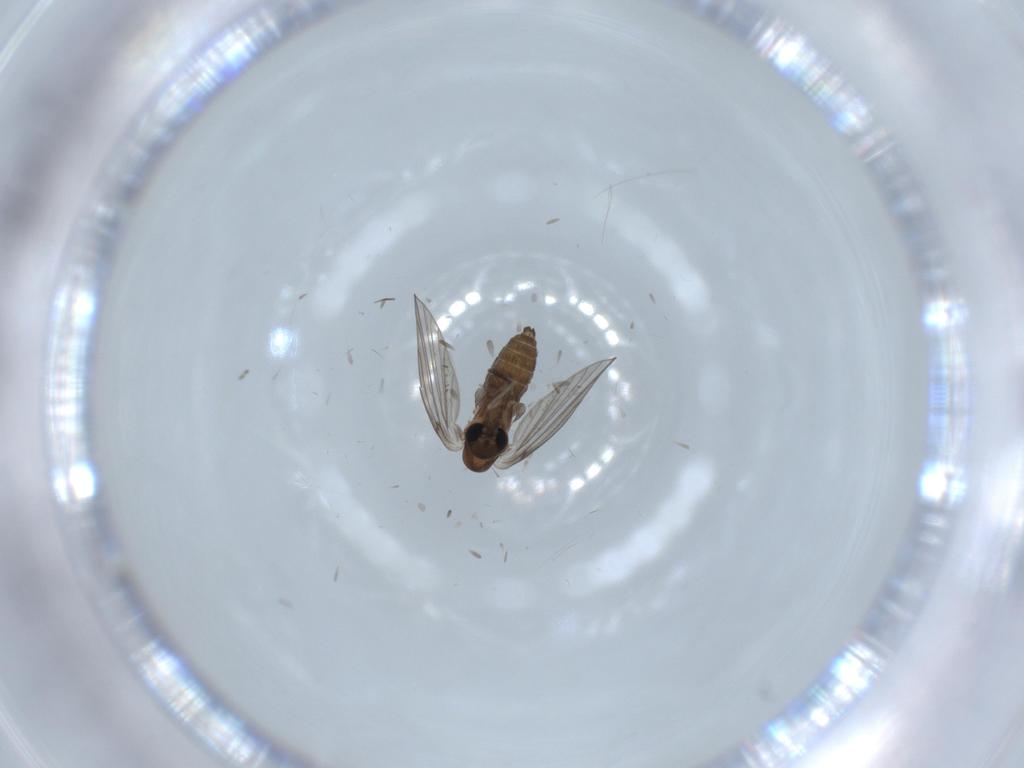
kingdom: Animalia
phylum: Arthropoda
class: Insecta
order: Diptera
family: Psychodidae
